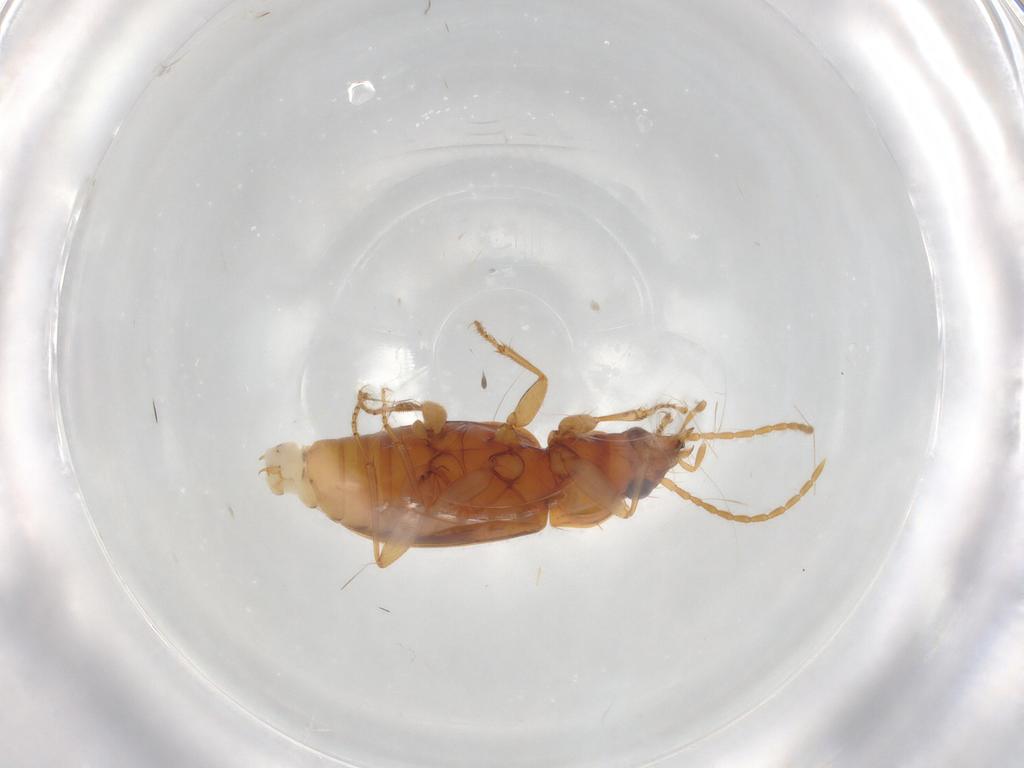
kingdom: Animalia
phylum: Arthropoda
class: Insecta
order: Coleoptera
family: Carabidae
